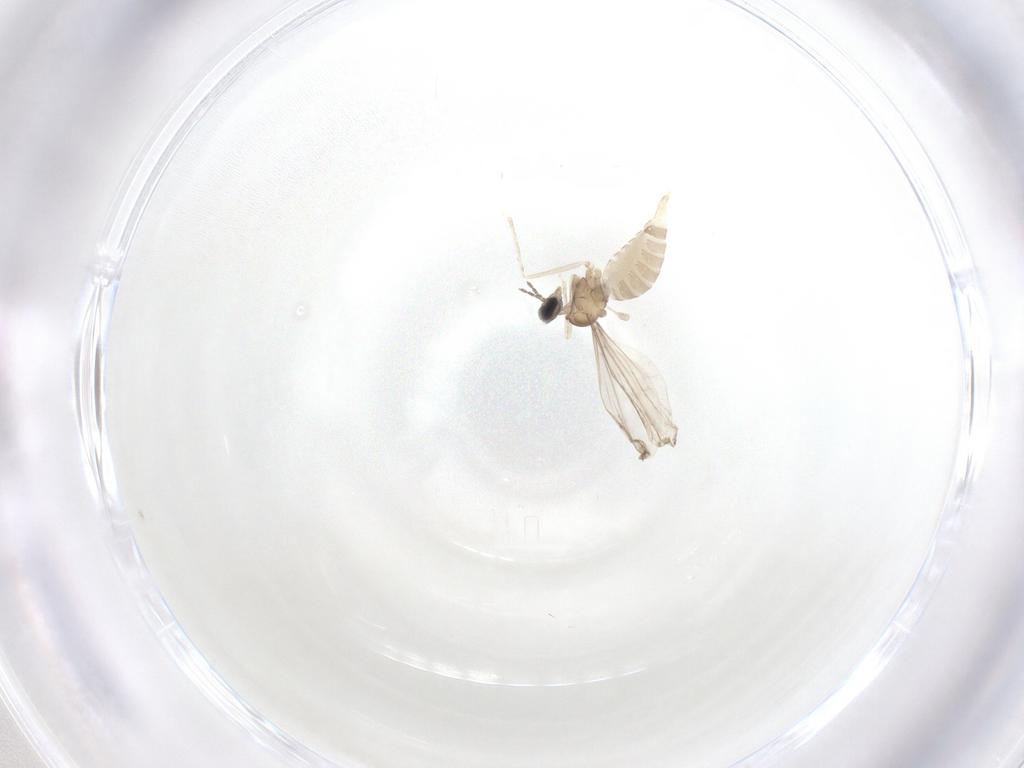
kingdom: Animalia
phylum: Arthropoda
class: Insecta
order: Diptera
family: Cecidomyiidae
